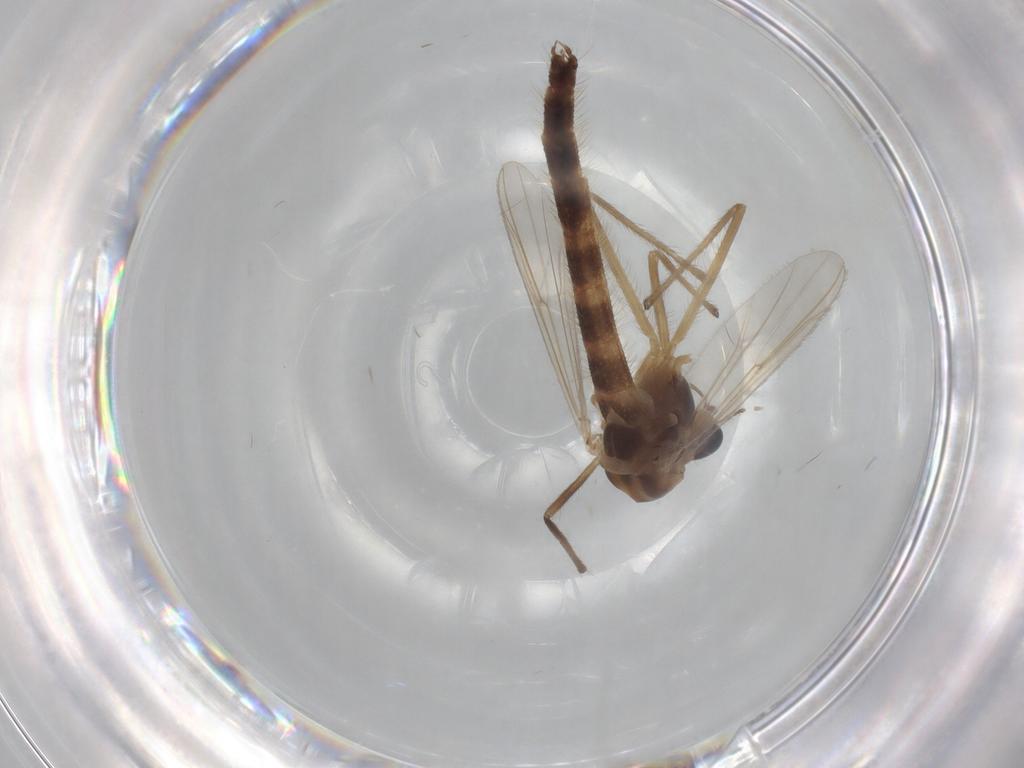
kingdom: Animalia
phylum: Arthropoda
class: Insecta
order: Diptera
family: Chironomidae
